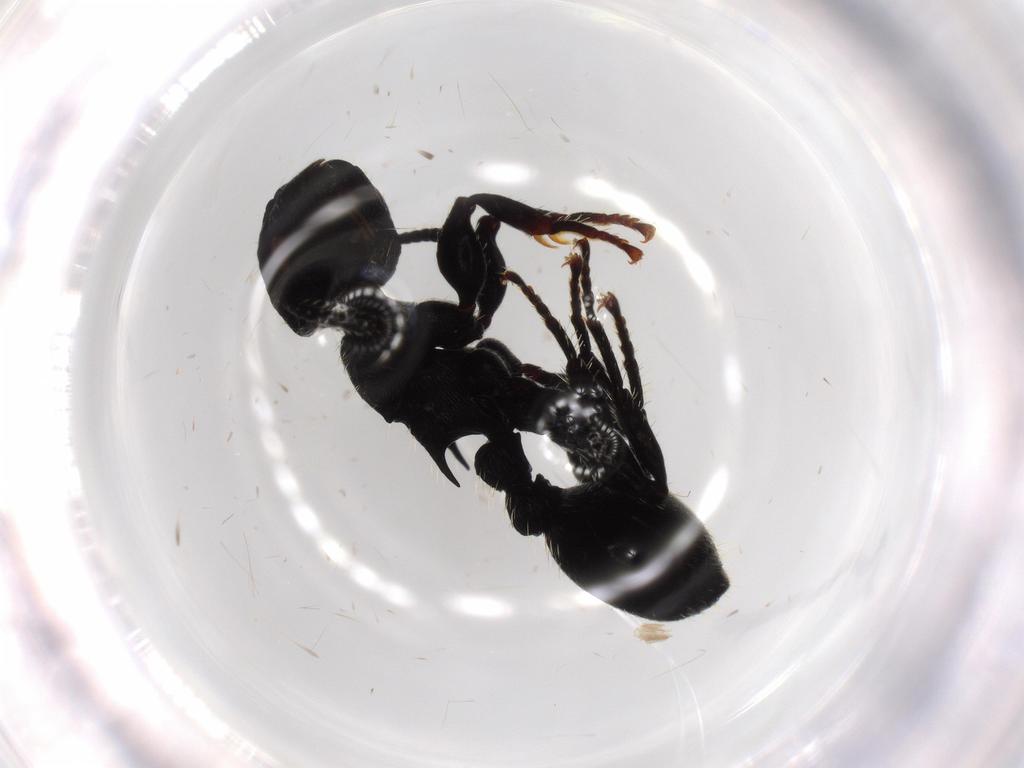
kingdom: Animalia
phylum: Arthropoda
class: Insecta
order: Hymenoptera
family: Formicidae
